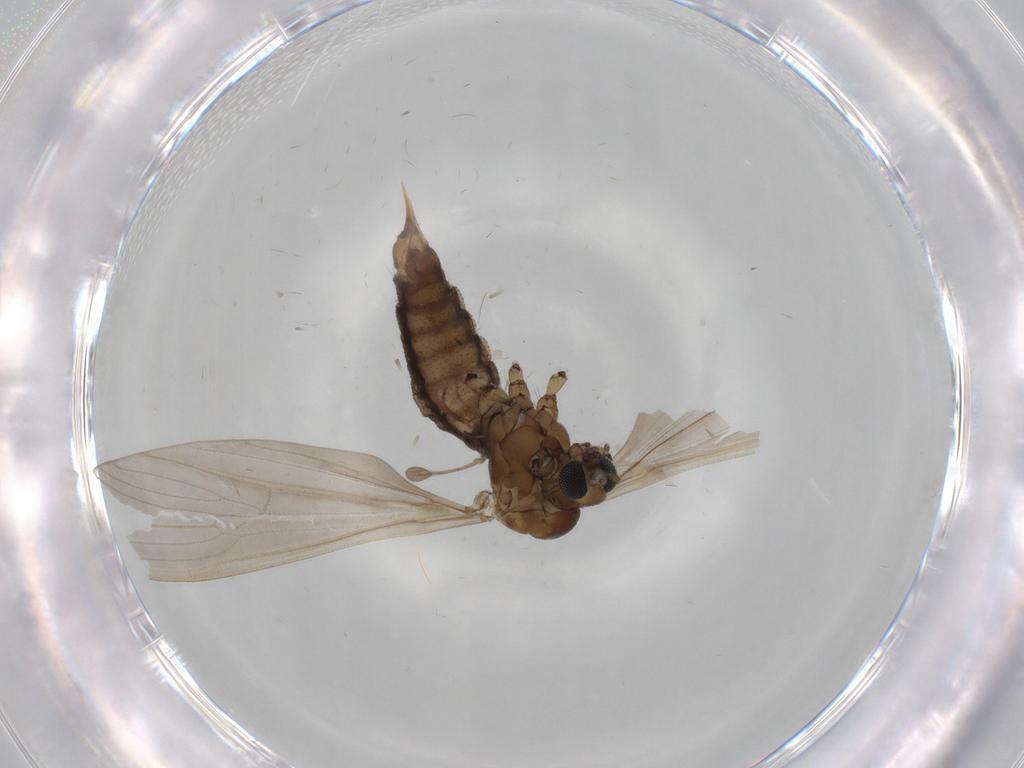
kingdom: Animalia
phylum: Arthropoda
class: Insecta
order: Diptera
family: Limoniidae
